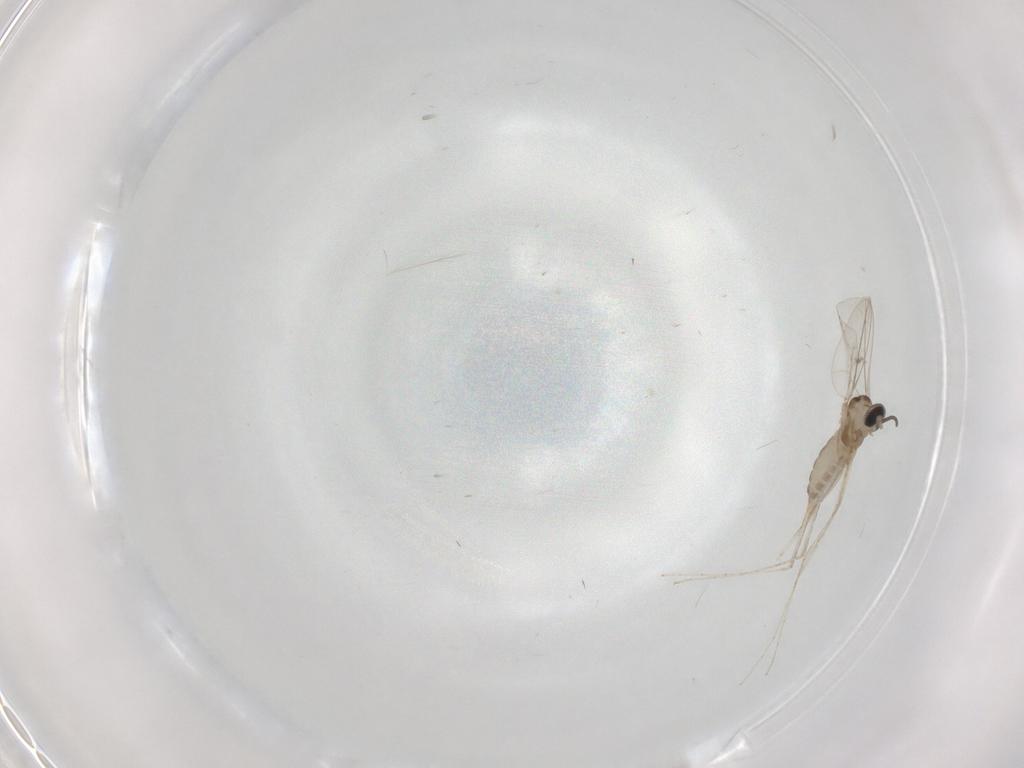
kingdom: Animalia
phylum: Arthropoda
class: Insecta
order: Diptera
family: Cecidomyiidae
